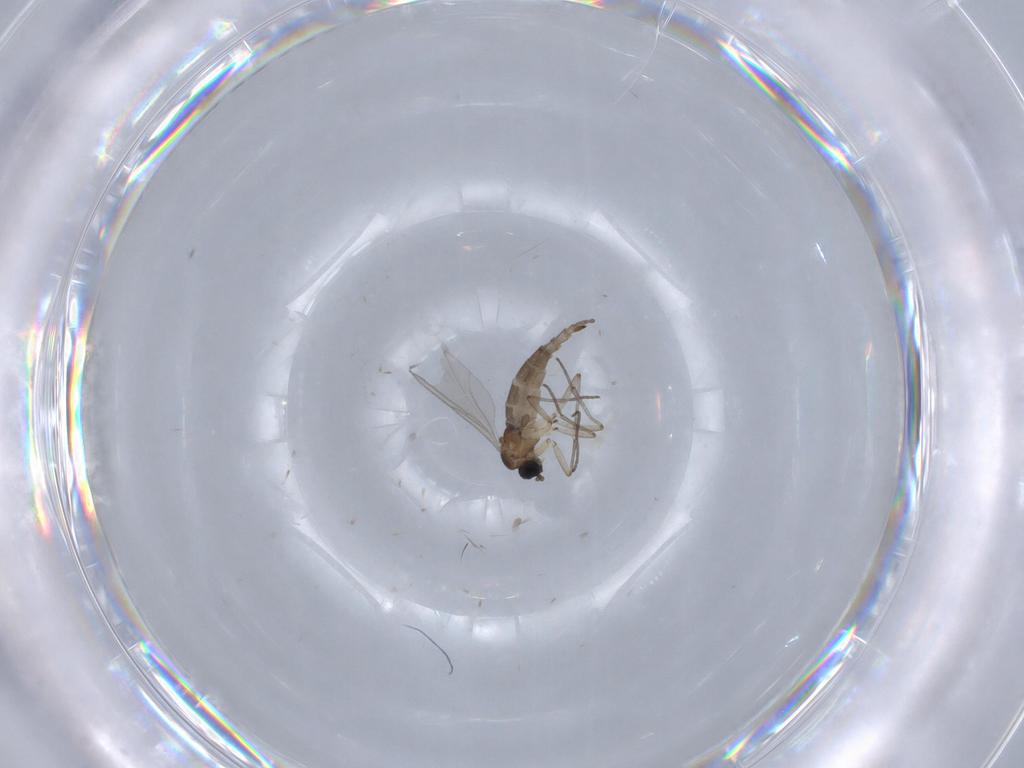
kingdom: Animalia
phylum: Arthropoda
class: Insecta
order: Diptera
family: Sciaridae
